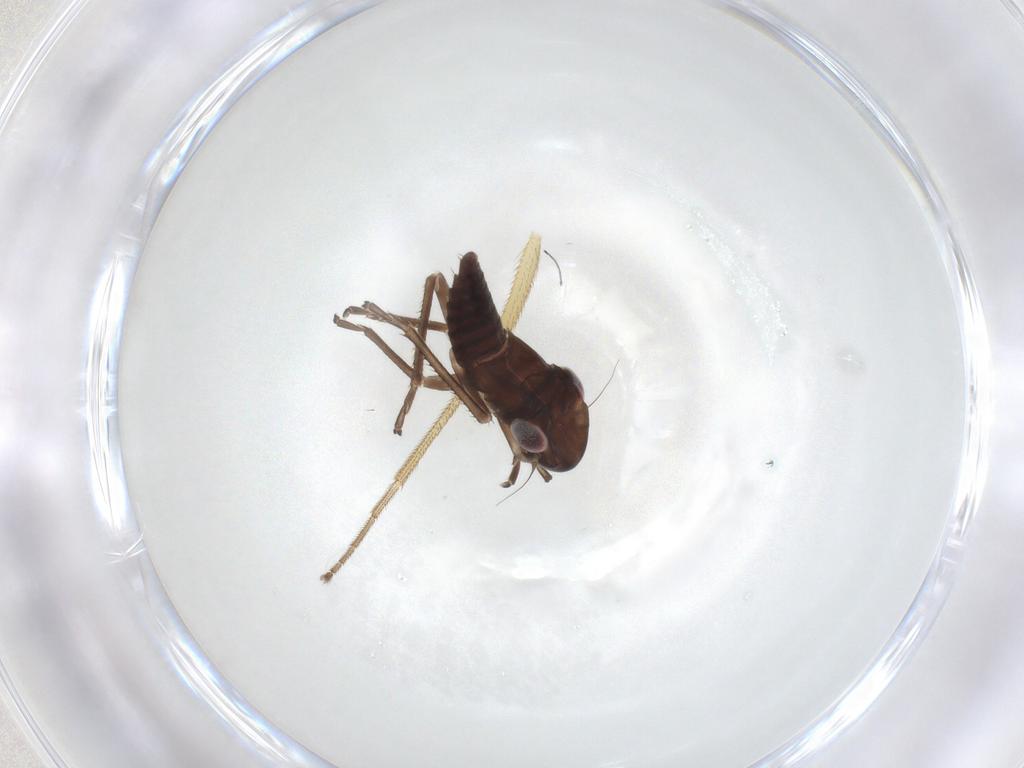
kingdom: Animalia
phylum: Arthropoda
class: Insecta
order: Hemiptera
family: Cicadellidae
